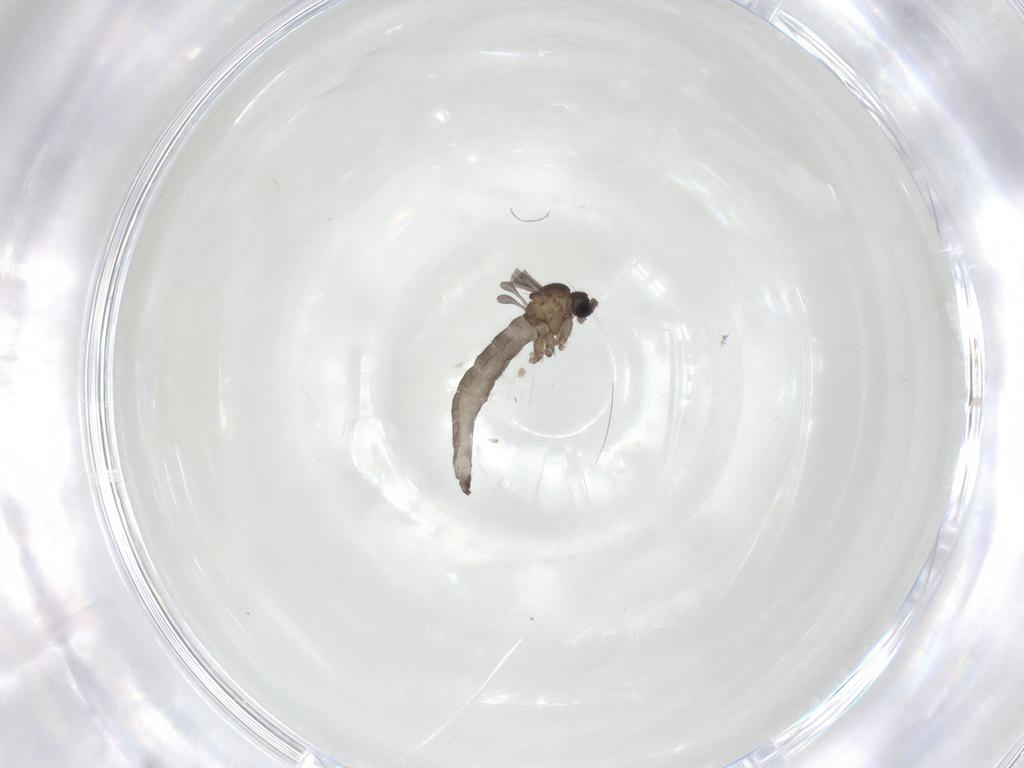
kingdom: Animalia
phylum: Arthropoda
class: Insecta
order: Diptera
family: Sciaridae
